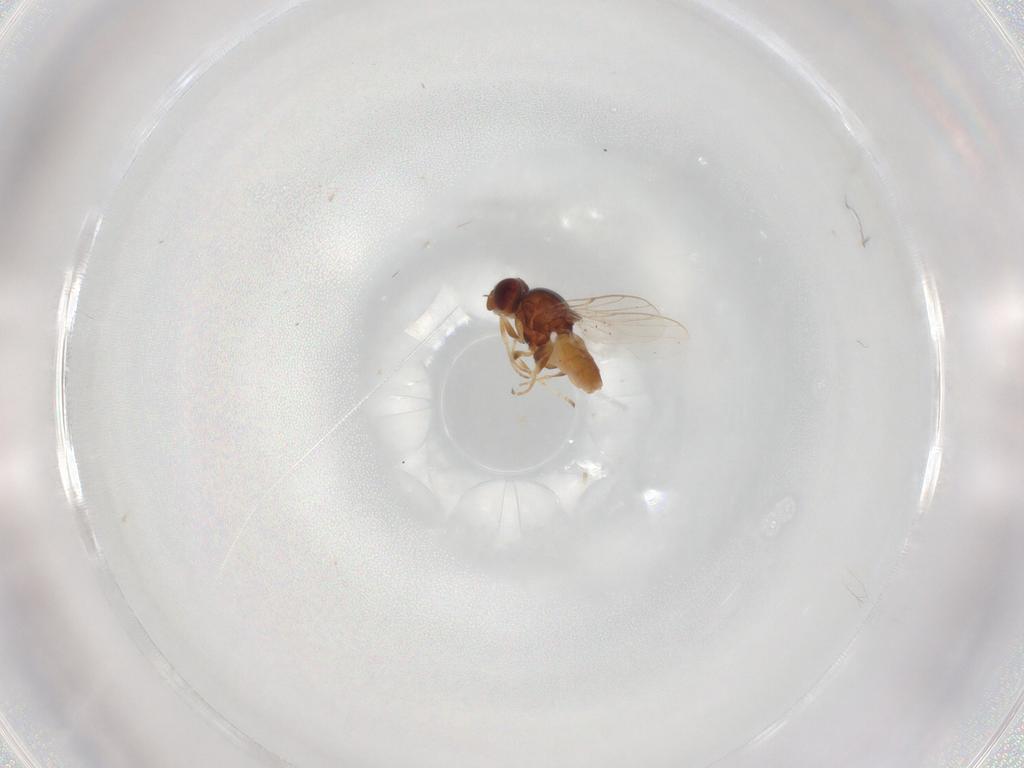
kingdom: Animalia
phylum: Arthropoda
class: Insecta
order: Diptera
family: Chloropidae
